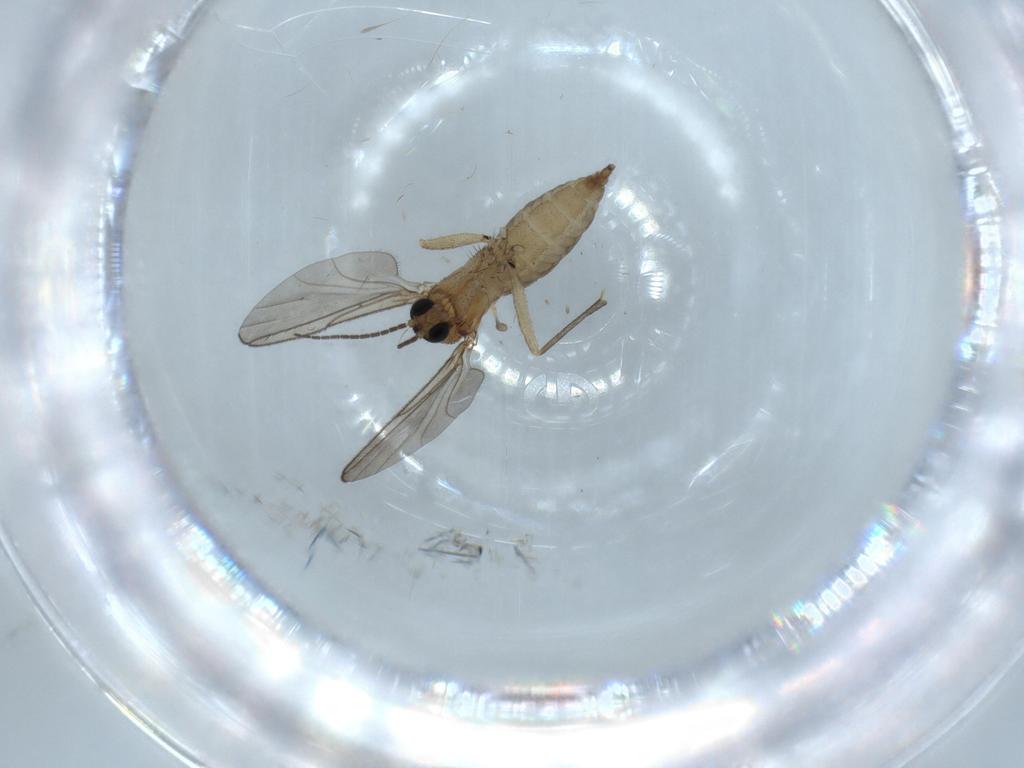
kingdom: Animalia
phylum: Arthropoda
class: Insecta
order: Diptera
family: Sciaridae
